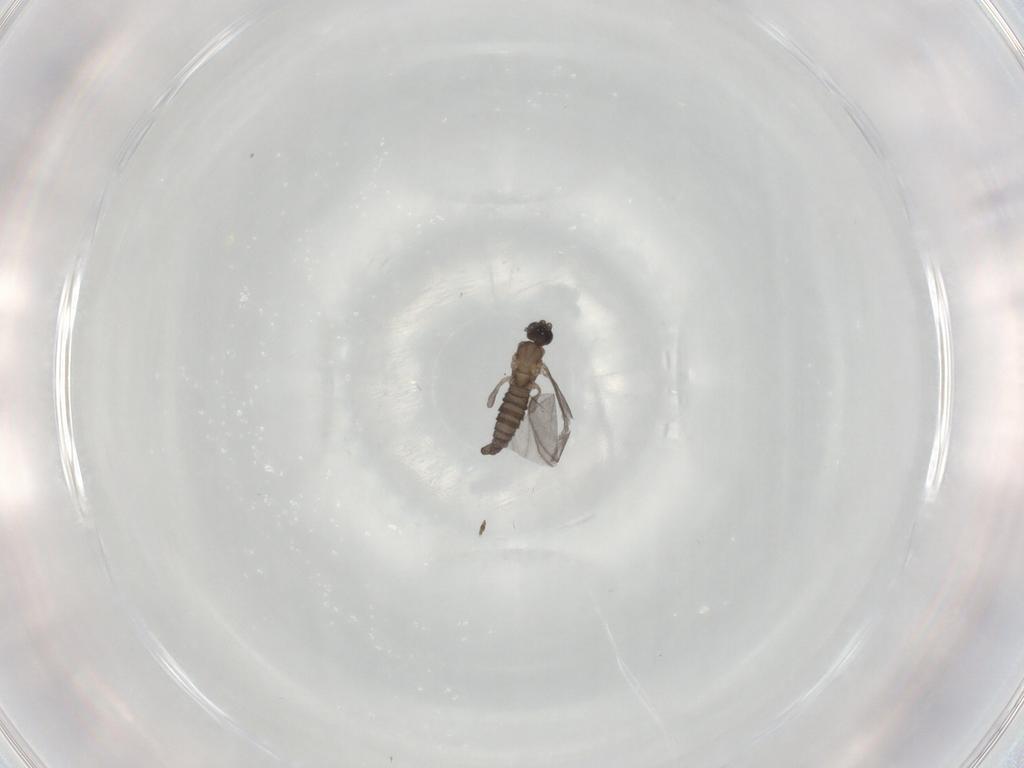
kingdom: Animalia
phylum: Arthropoda
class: Insecta
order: Diptera
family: Sciaridae
